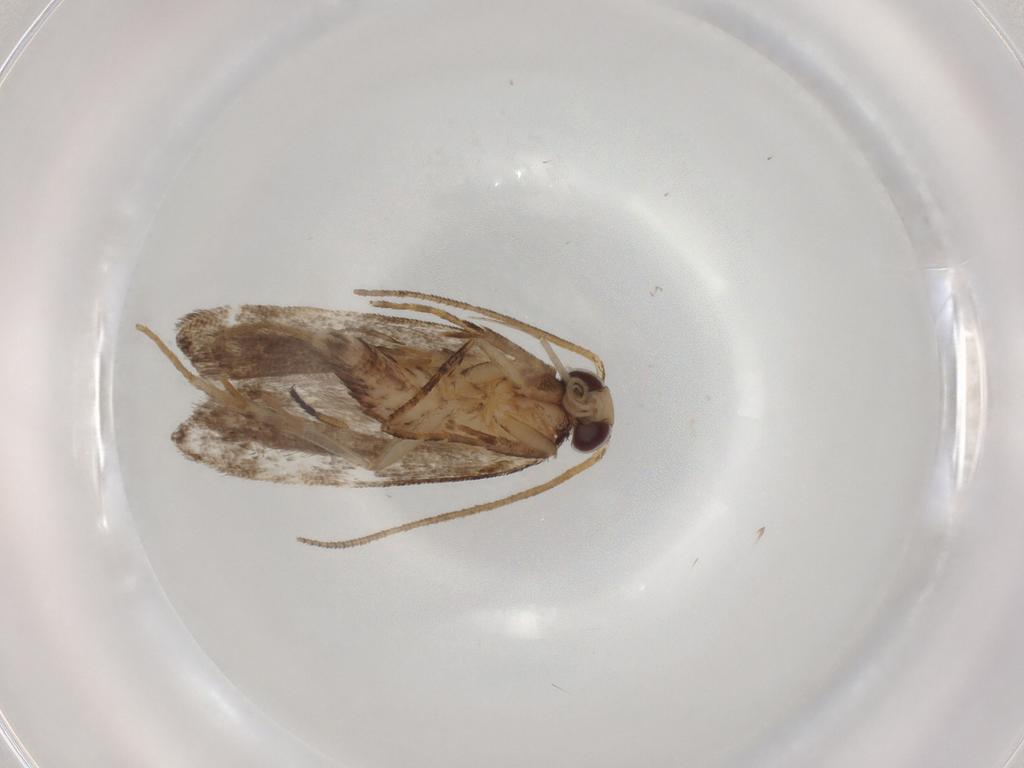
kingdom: Animalia
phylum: Arthropoda
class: Insecta
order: Lepidoptera
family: Gelechiidae
